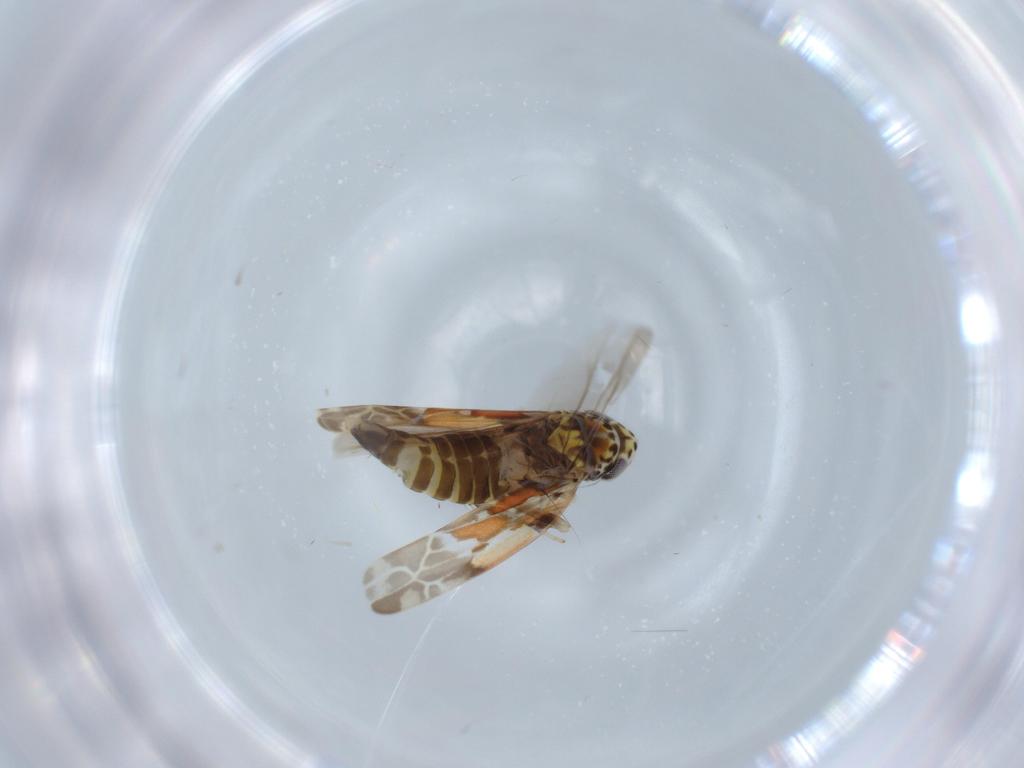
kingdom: Animalia
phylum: Arthropoda
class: Insecta
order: Hemiptera
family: Cicadellidae
